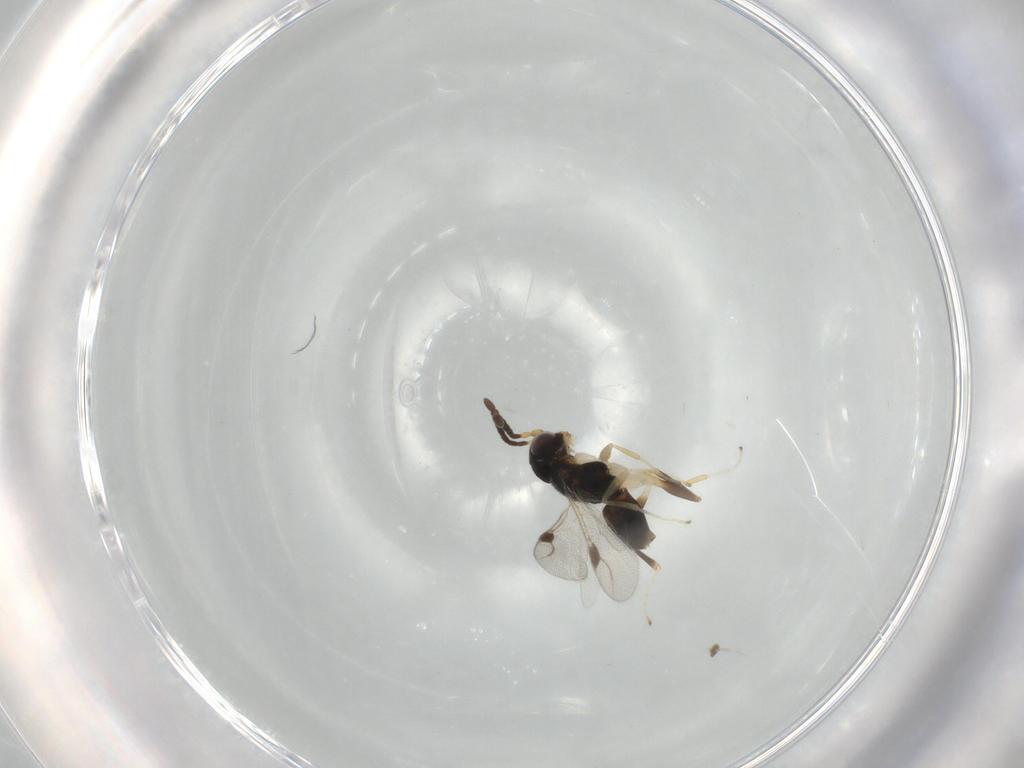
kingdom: Animalia
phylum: Arthropoda
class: Insecta
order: Hymenoptera
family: Dryinidae
